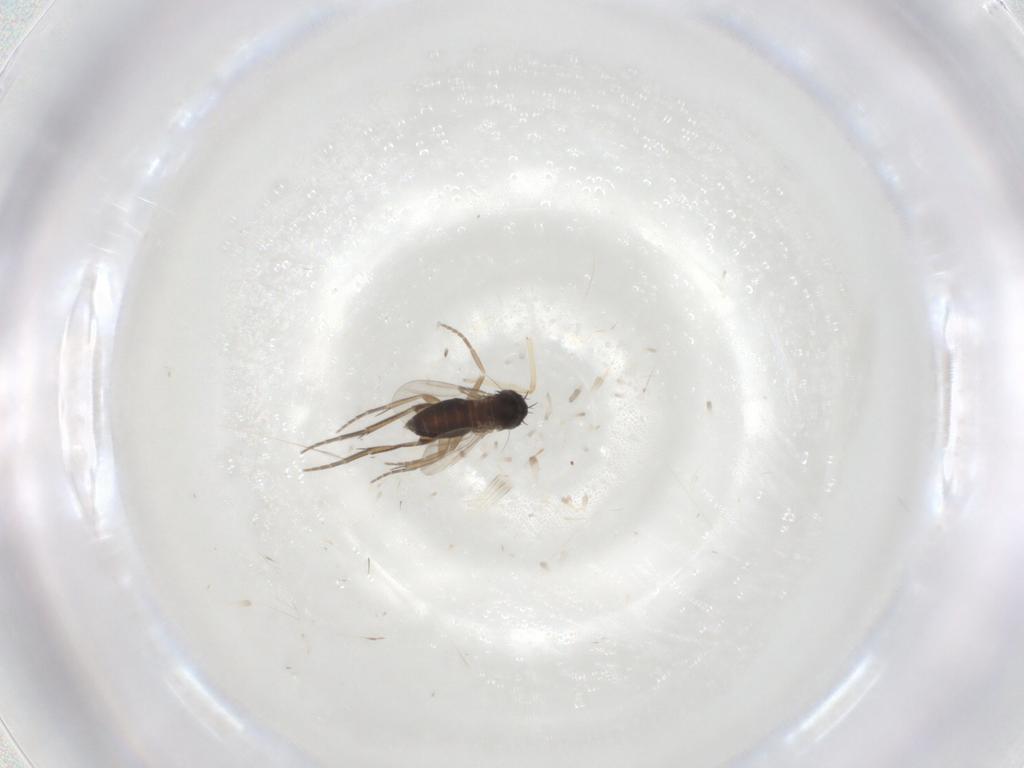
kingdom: Animalia
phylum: Arthropoda
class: Insecta
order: Diptera
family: Phoridae
